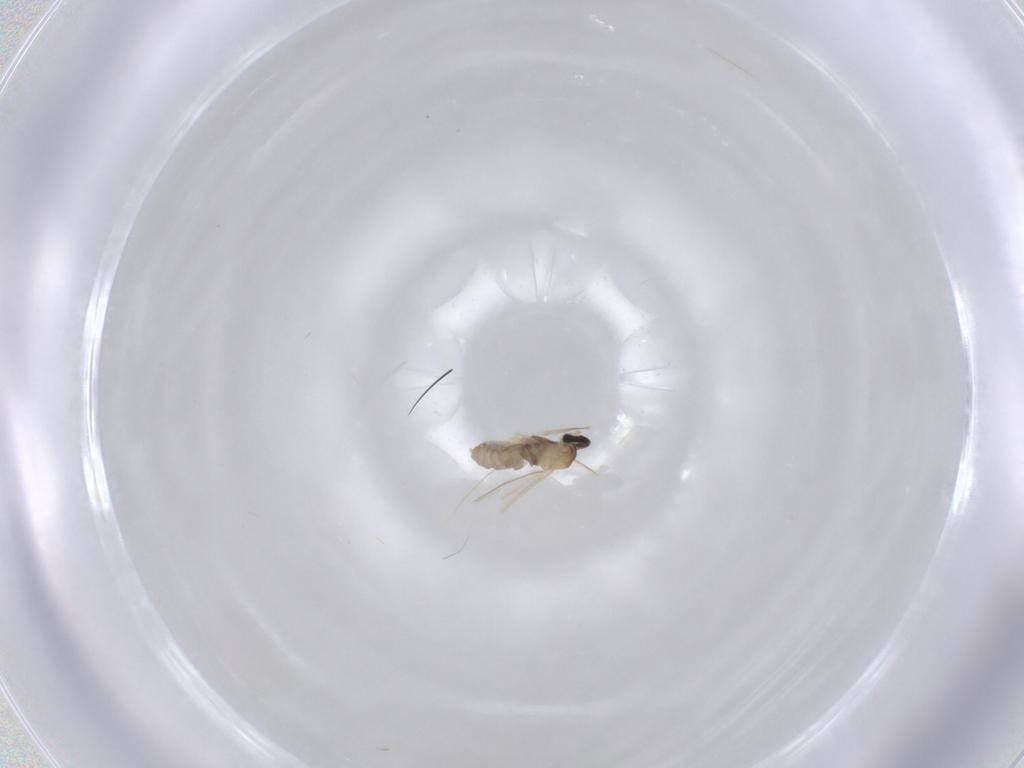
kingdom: Animalia
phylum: Arthropoda
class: Insecta
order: Diptera
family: Cecidomyiidae
